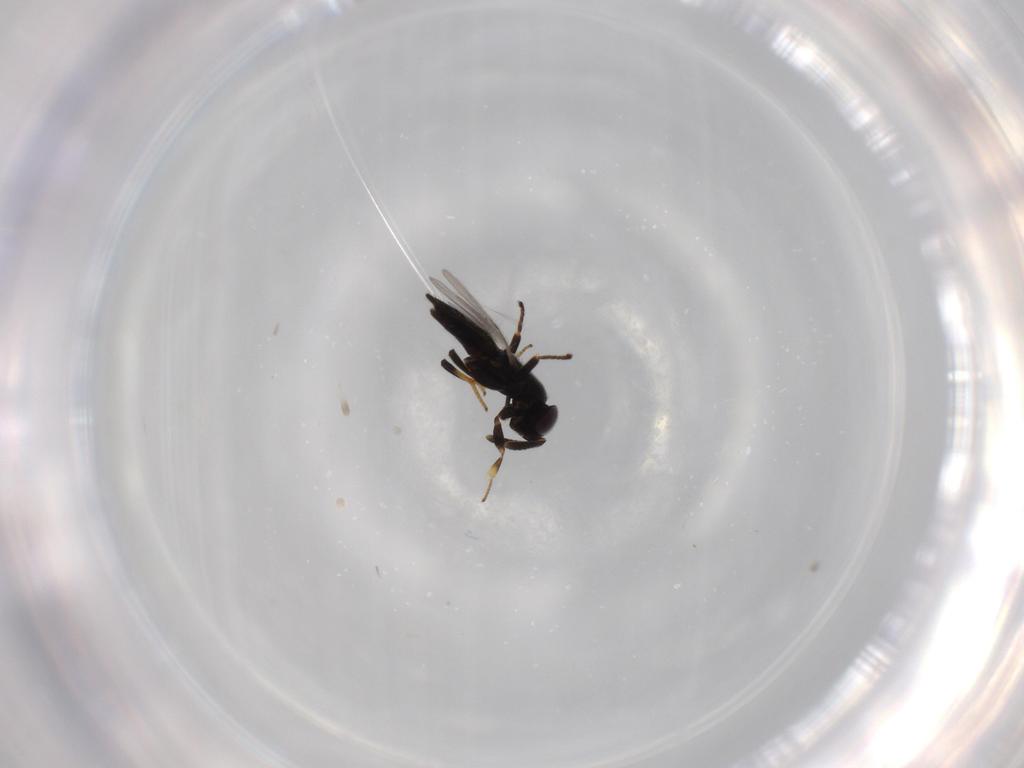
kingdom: Animalia
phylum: Arthropoda
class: Insecta
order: Hymenoptera
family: Encyrtidae
